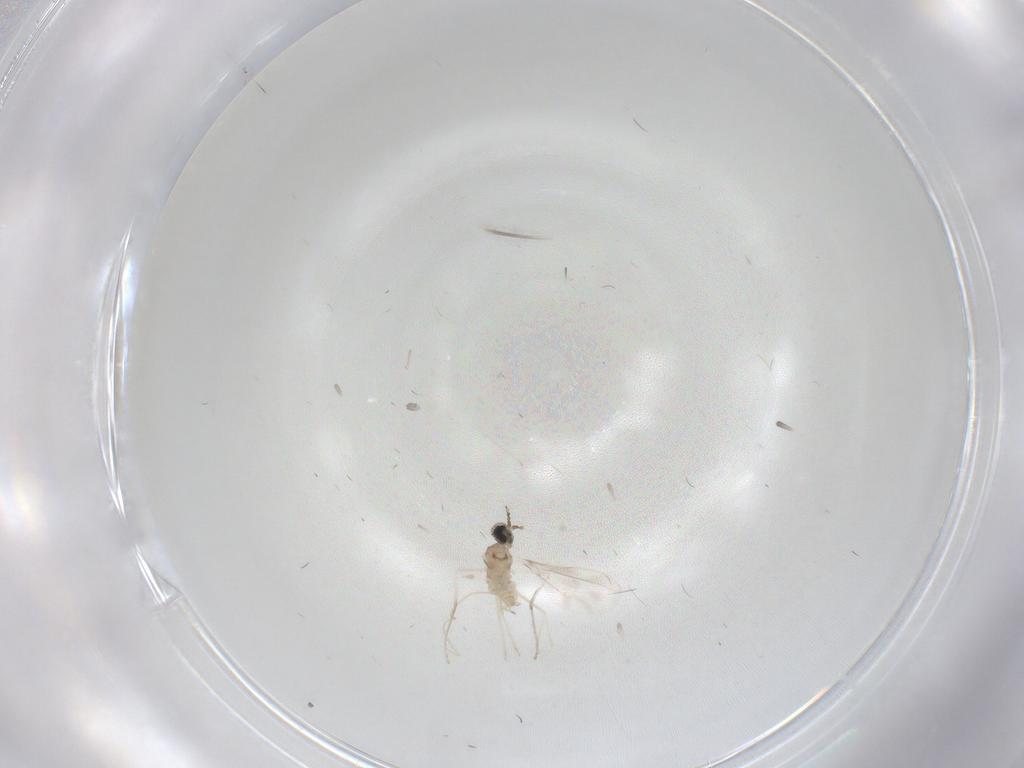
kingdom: Animalia
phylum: Arthropoda
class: Insecta
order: Diptera
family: Cecidomyiidae
